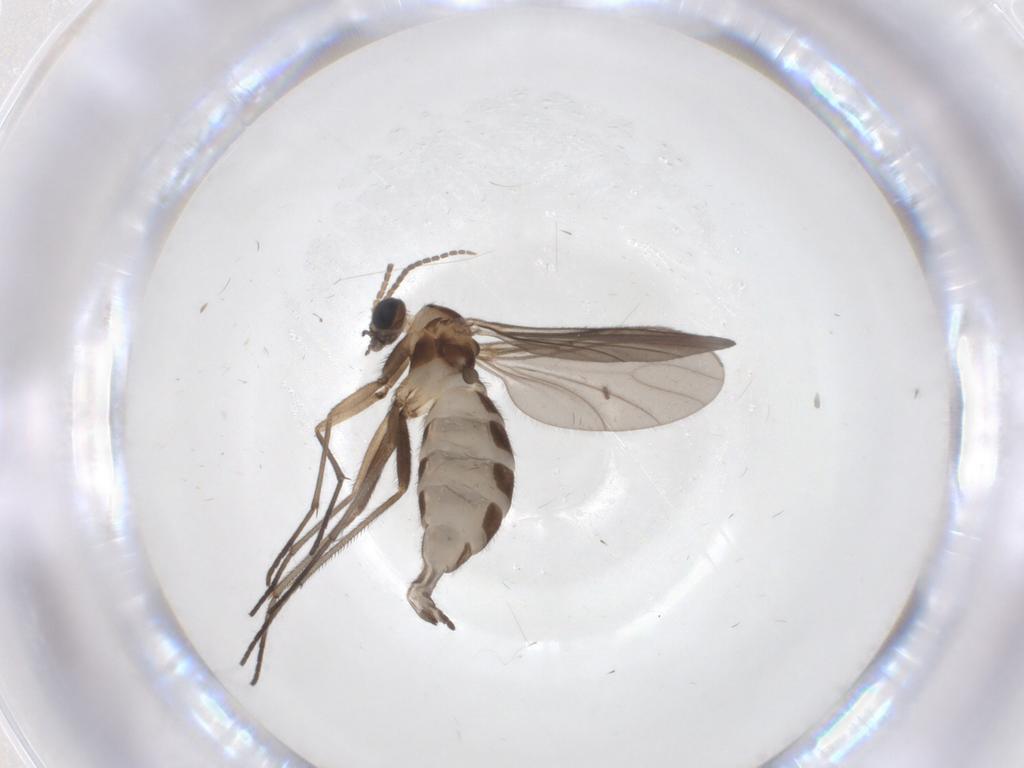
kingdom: Animalia
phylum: Arthropoda
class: Insecta
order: Diptera
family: Sciaridae
